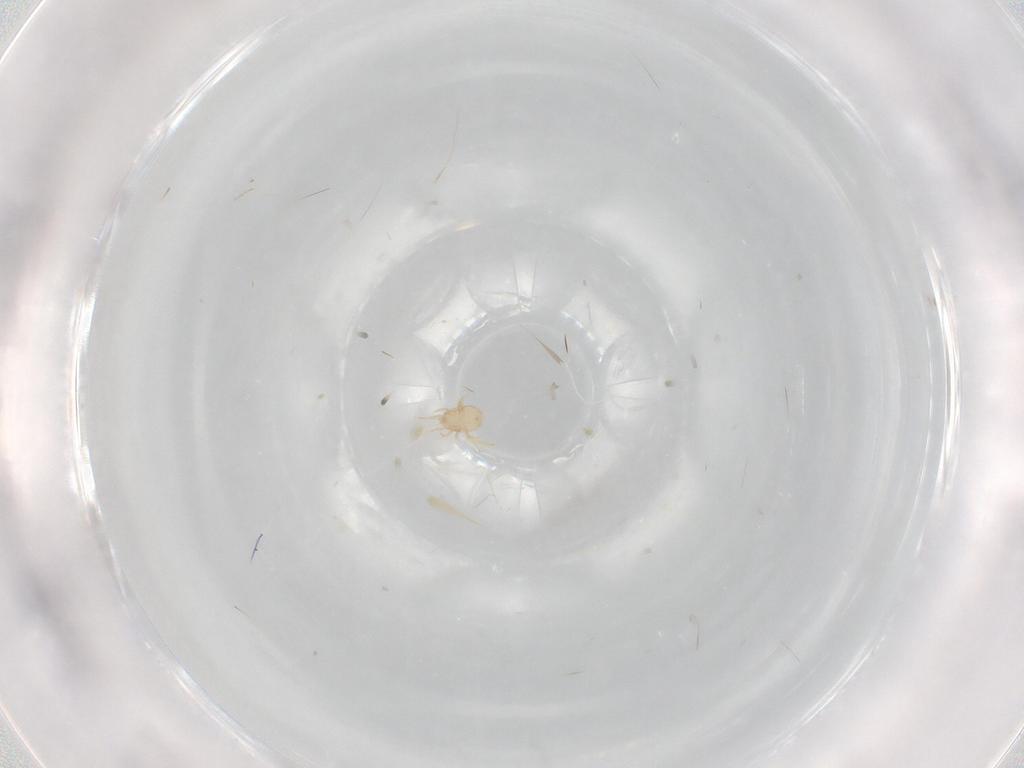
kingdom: Animalia
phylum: Arthropoda
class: Arachnida
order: Mesostigmata
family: Ameroseiidae
